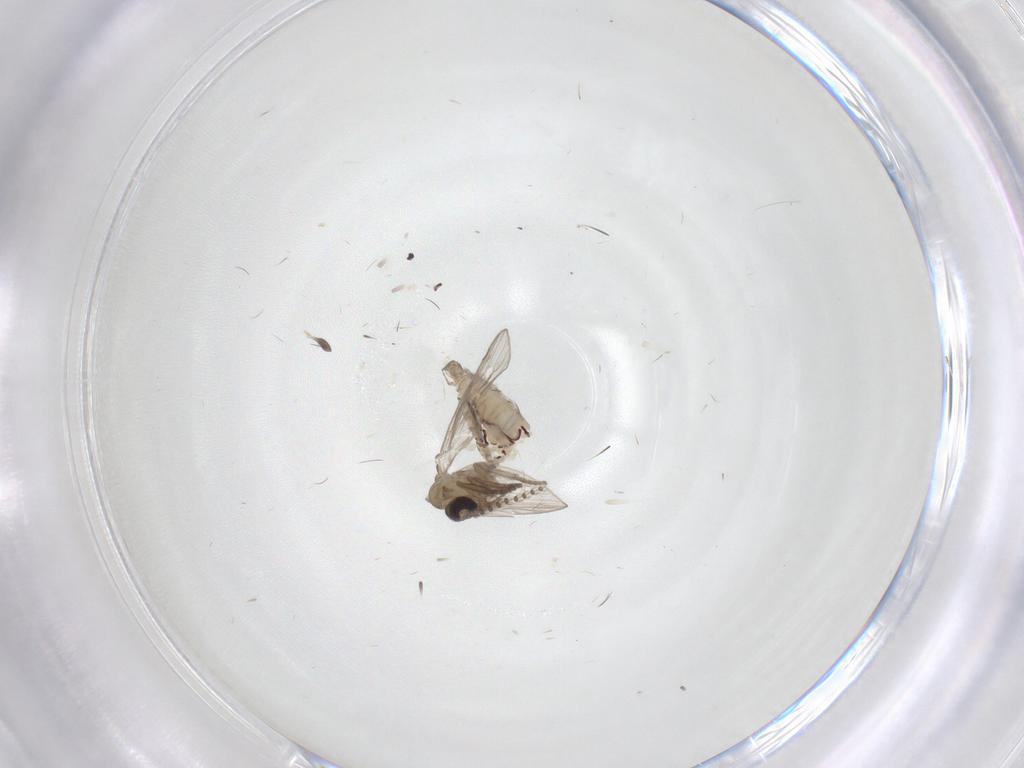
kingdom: Animalia
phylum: Arthropoda
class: Insecta
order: Diptera
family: Psychodidae
